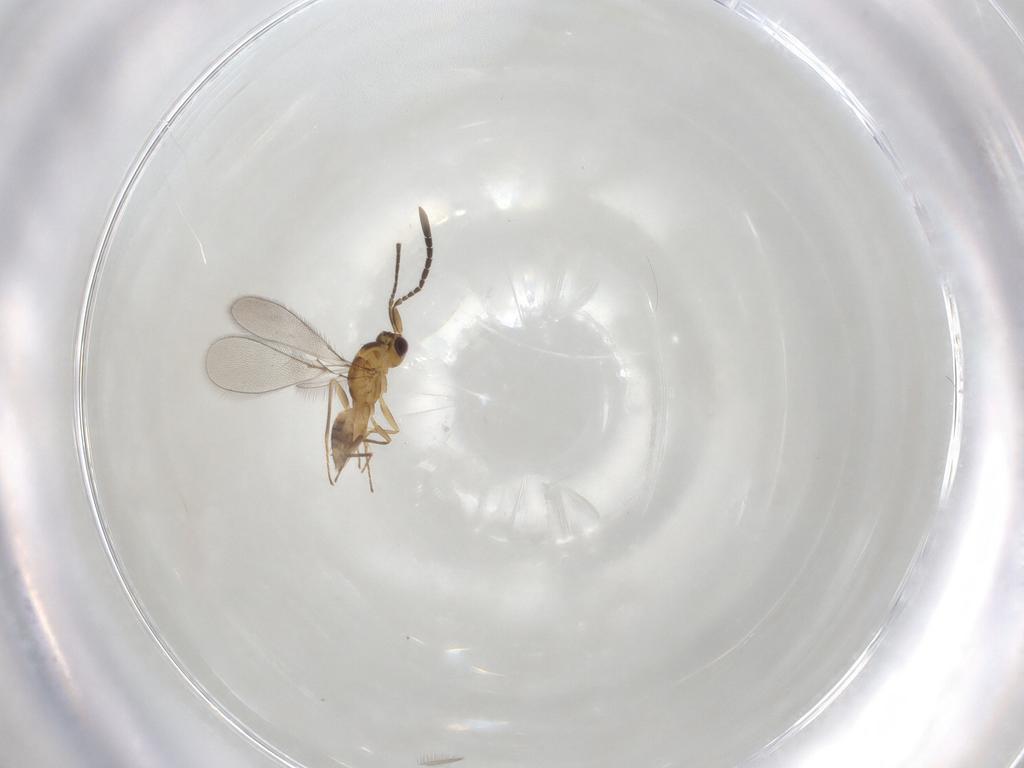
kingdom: Animalia
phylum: Arthropoda
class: Insecta
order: Hymenoptera
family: Mymaridae
